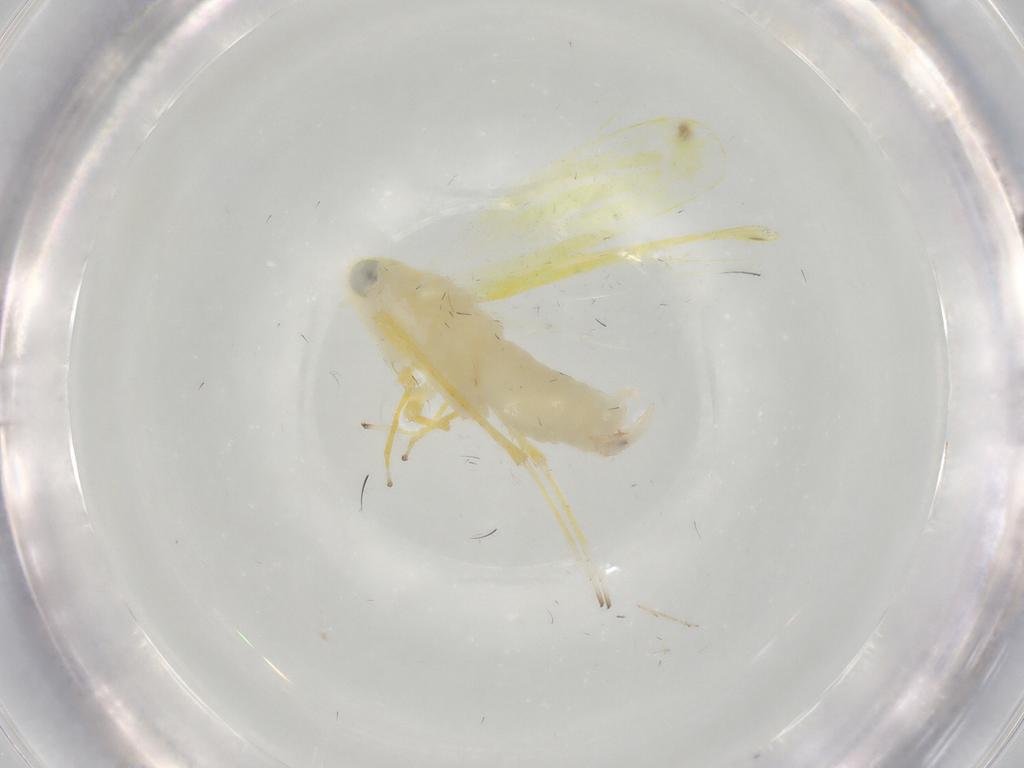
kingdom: Animalia
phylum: Arthropoda
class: Insecta
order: Hemiptera
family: Cicadellidae
